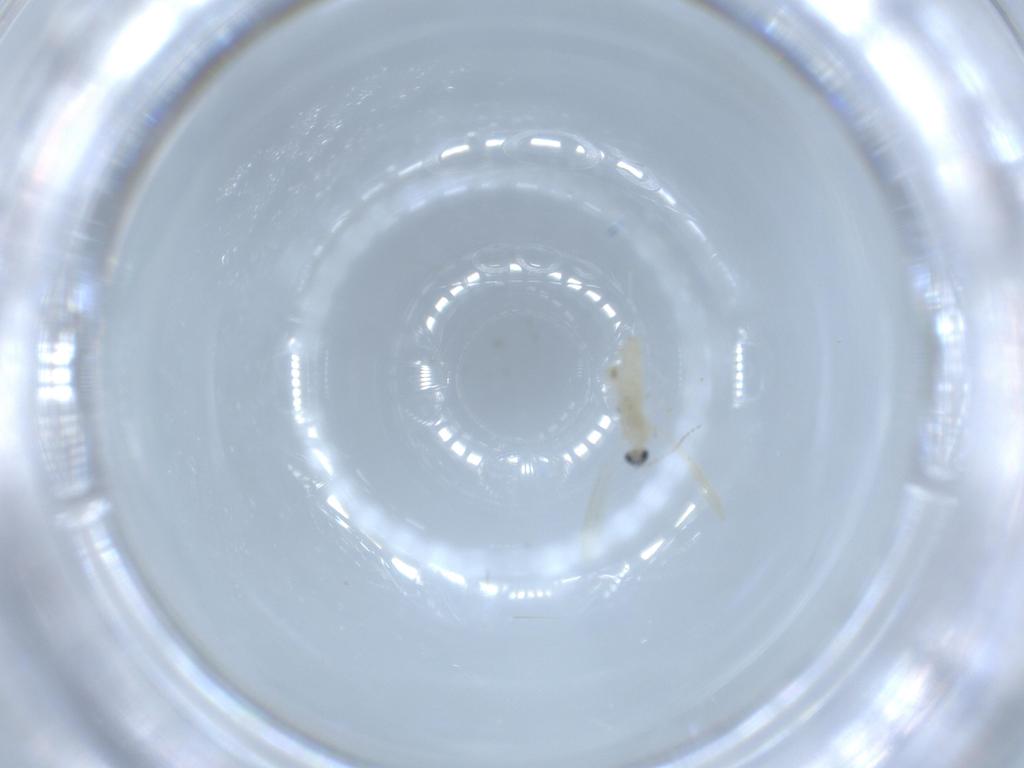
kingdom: Animalia
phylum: Arthropoda
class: Insecta
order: Diptera
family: Cecidomyiidae
